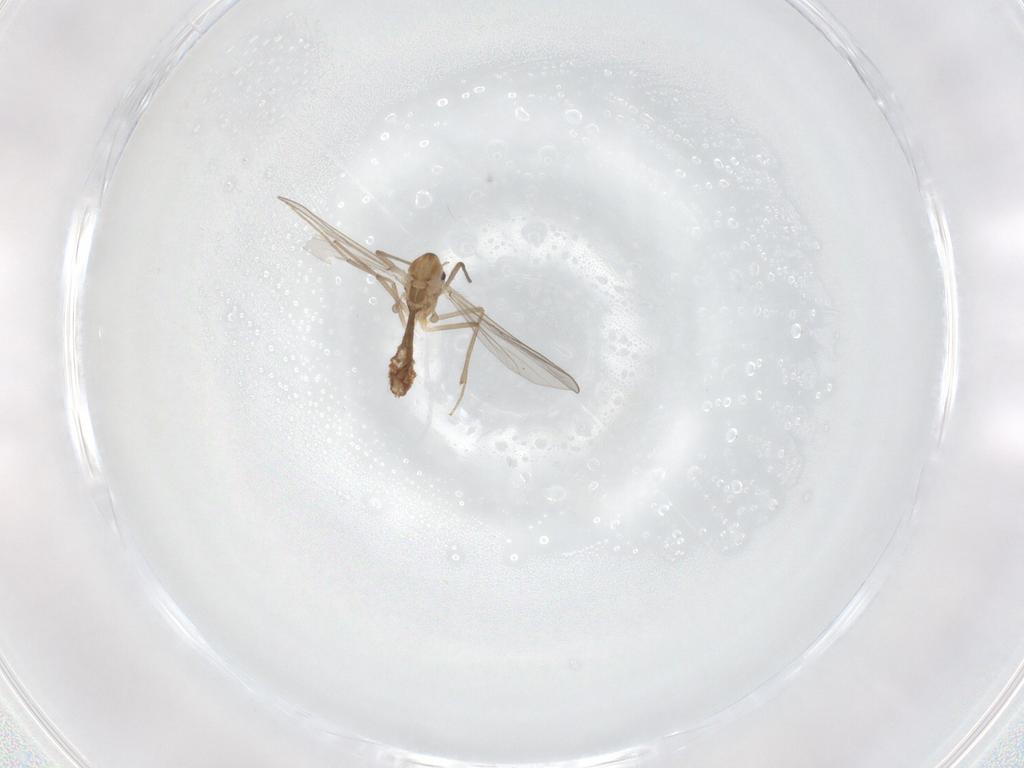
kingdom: Animalia
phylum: Arthropoda
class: Insecta
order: Diptera
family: Chironomidae
